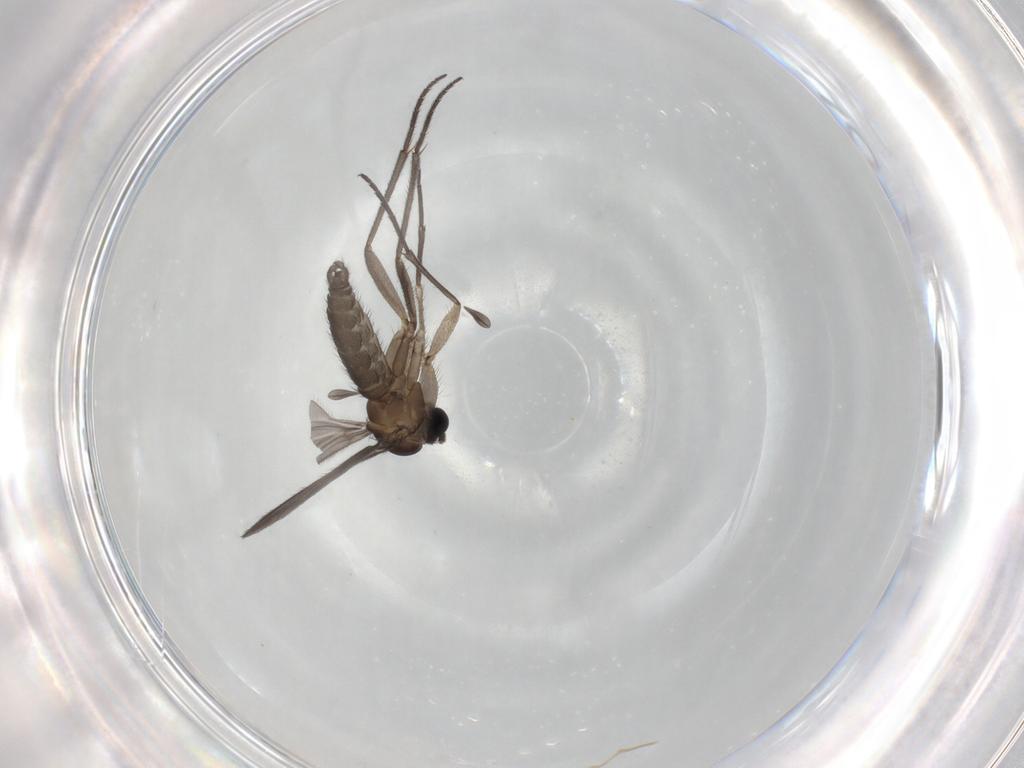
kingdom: Animalia
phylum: Arthropoda
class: Insecta
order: Diptera
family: Sciaridae
